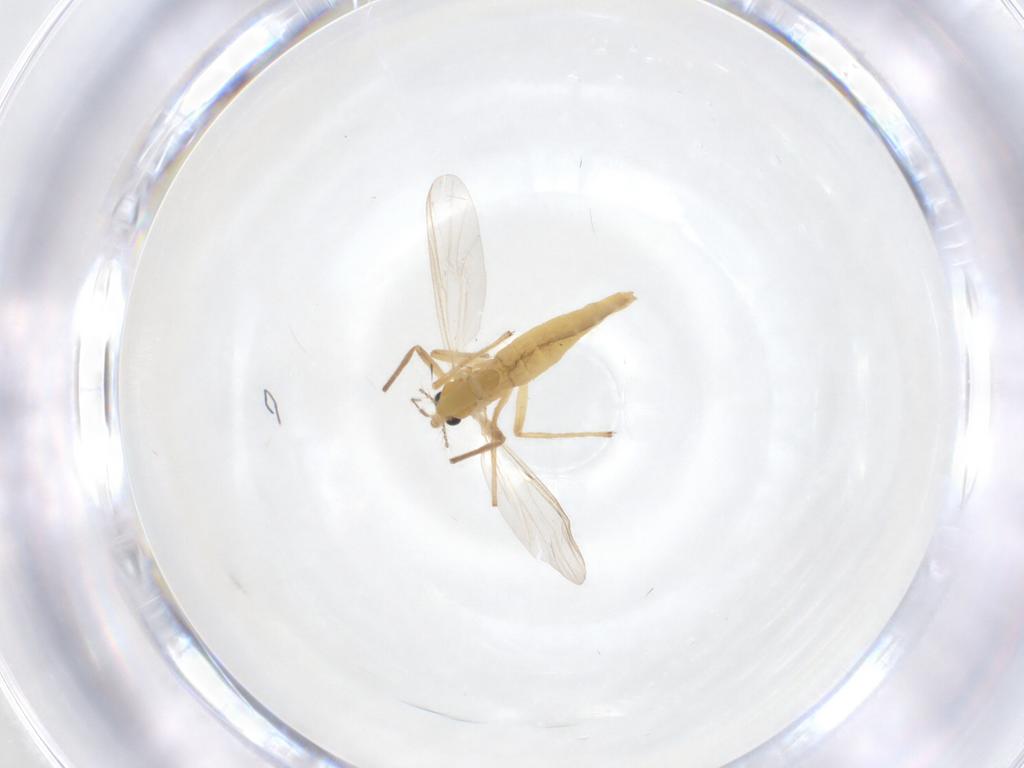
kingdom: Animalia
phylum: Arthropoda
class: Insecta
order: Diptera
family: Chironomidae
